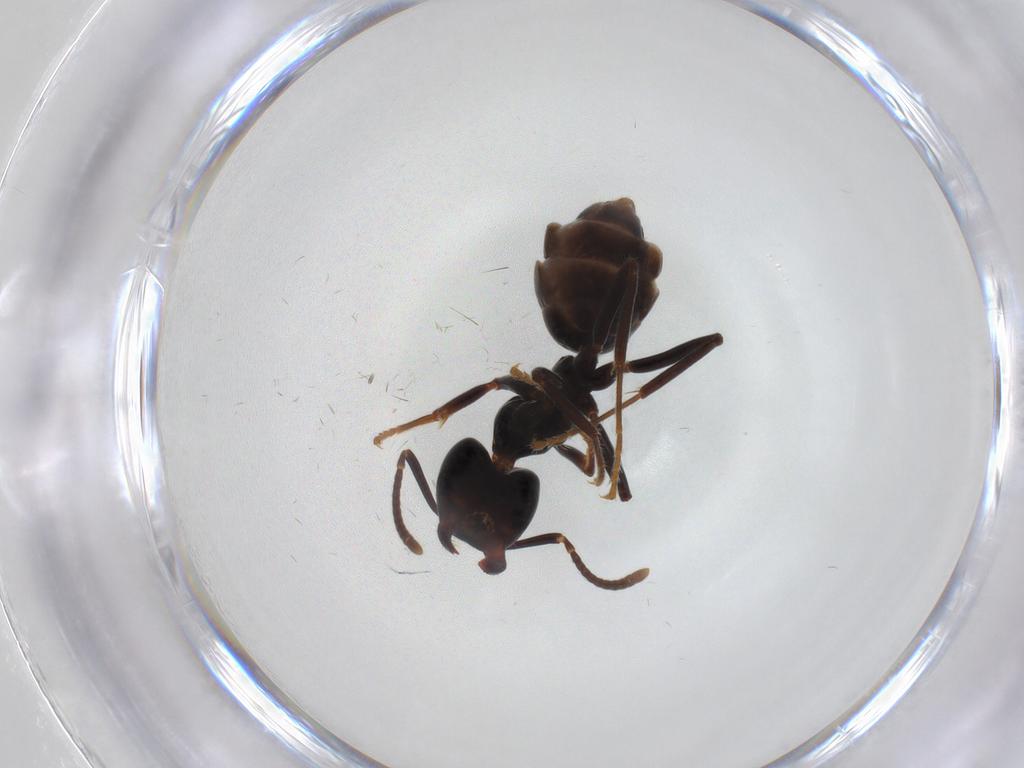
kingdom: Animalia
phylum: Arthropoda
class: Insecta
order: Hymenoptera
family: Formicidae
